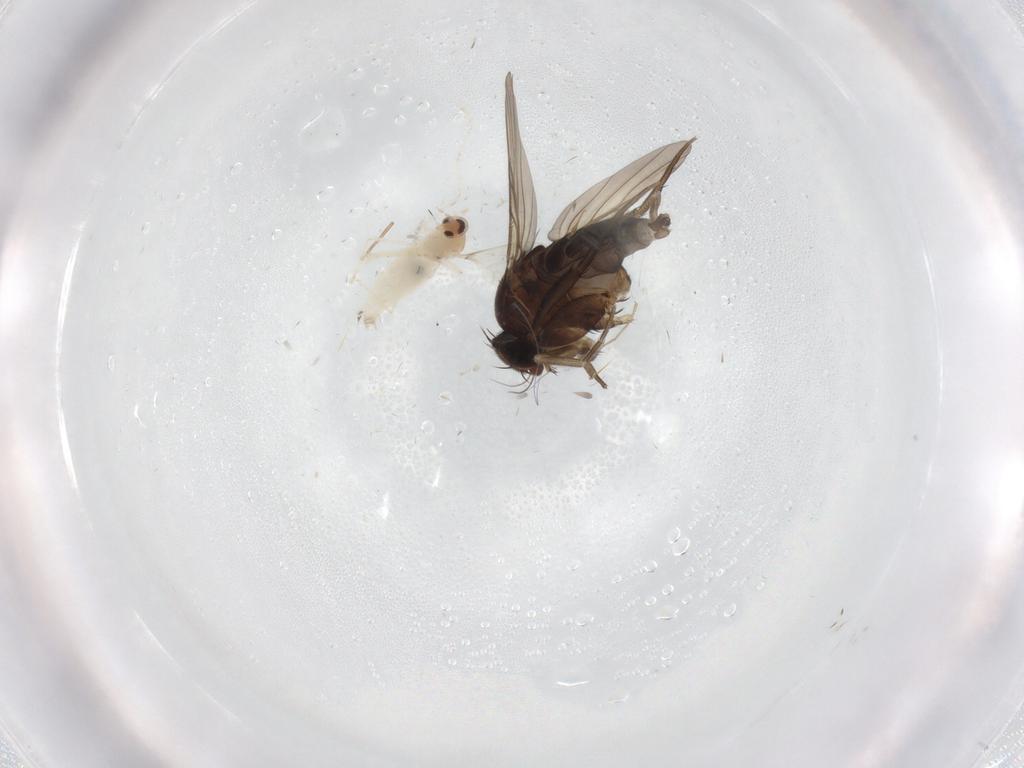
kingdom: Animalia
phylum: Arthropoda
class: Insecta
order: Diptera
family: Phoridae
